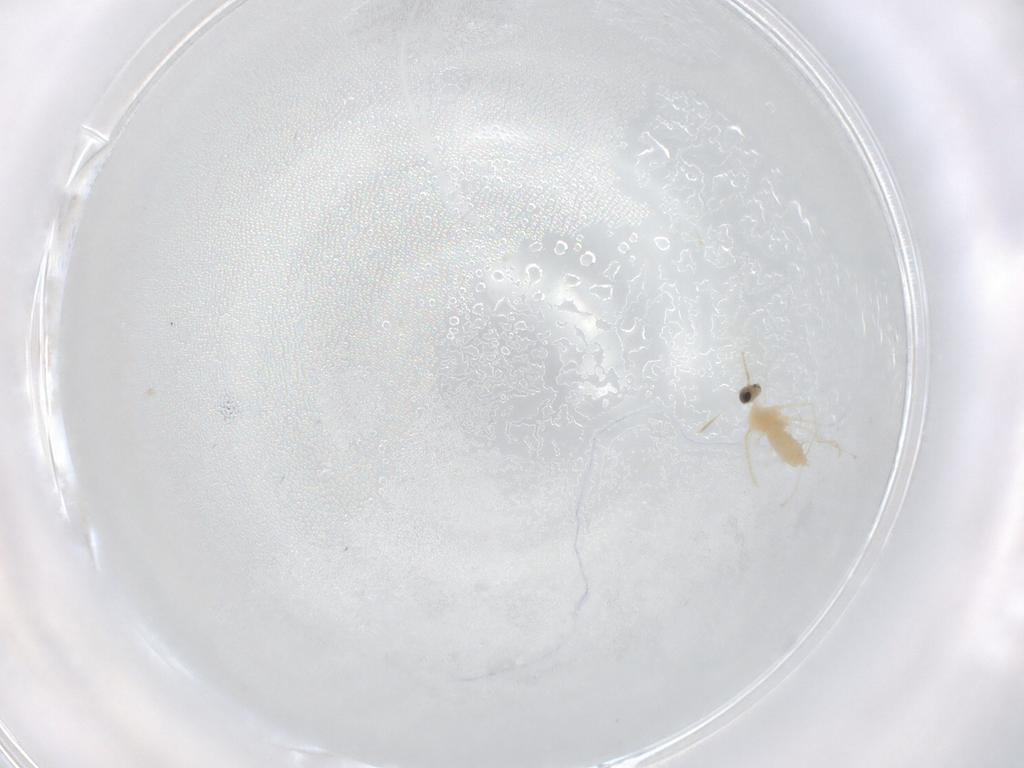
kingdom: Animalia
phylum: Arthropoda
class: Insecta
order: Diptera
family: Cecidomyiidae
